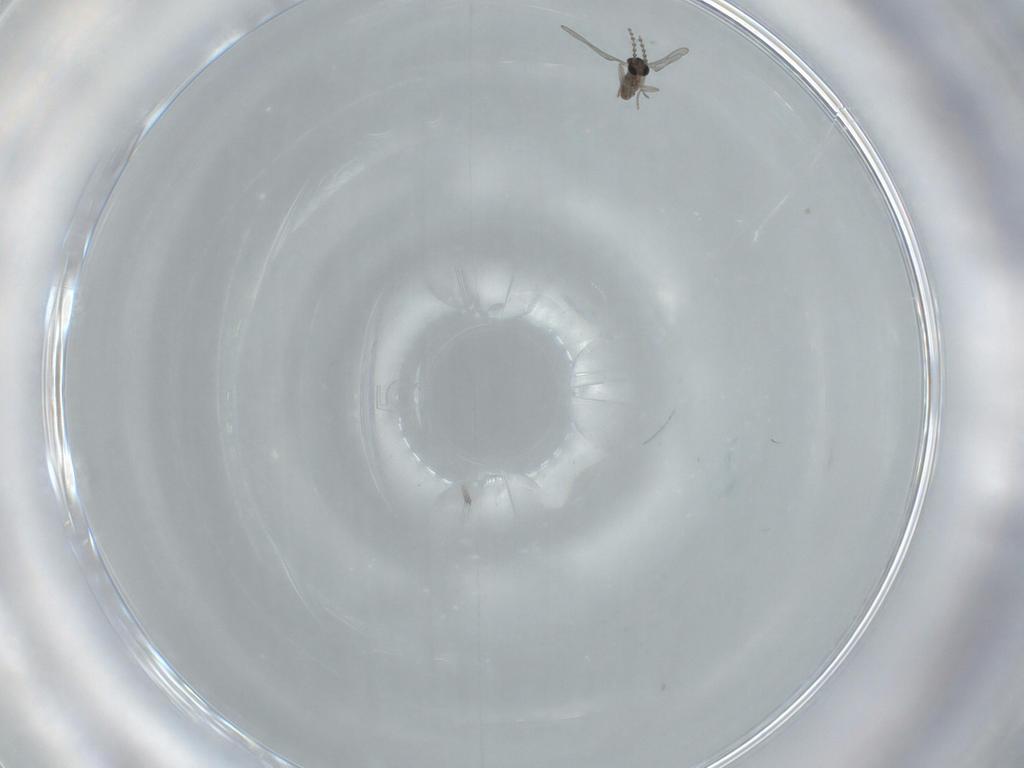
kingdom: Animalia
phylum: Arthropoda
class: Insecta
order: Diptera
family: Cecidomyiidae
